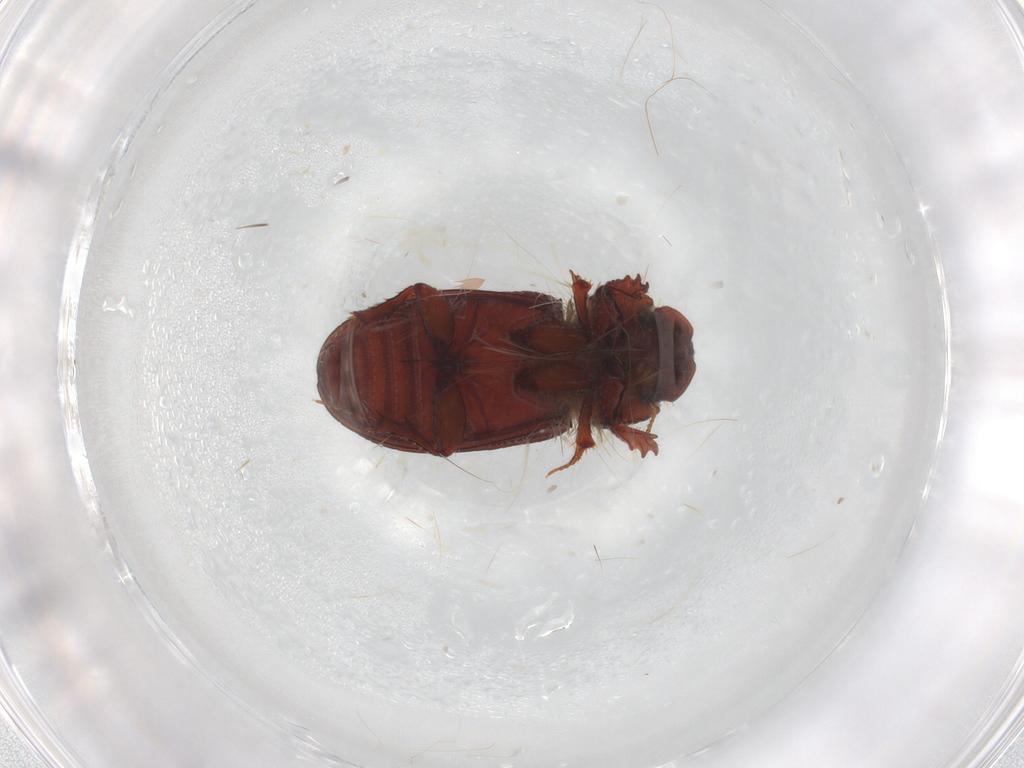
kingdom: Animalia
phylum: Arthropoda
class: Insecta
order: Coleoptera
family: Scarabaeidae
